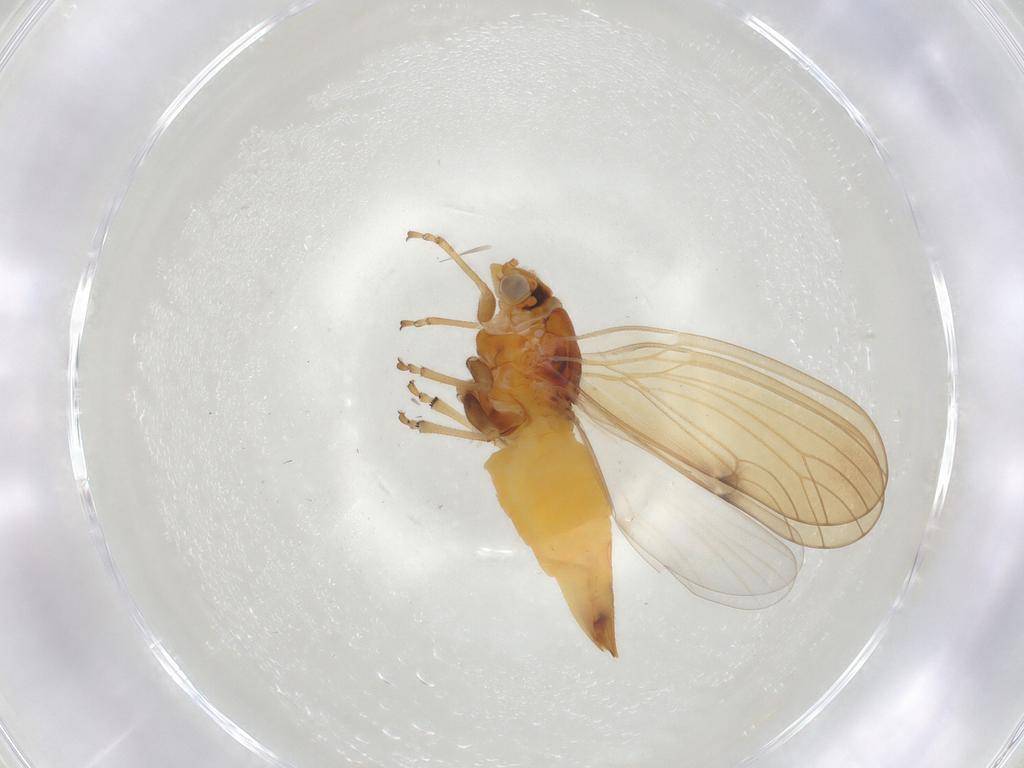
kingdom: Animalia
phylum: Arthropoda
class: Insecta
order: Hemiptera
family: Psylloidea_incertae_sedis
